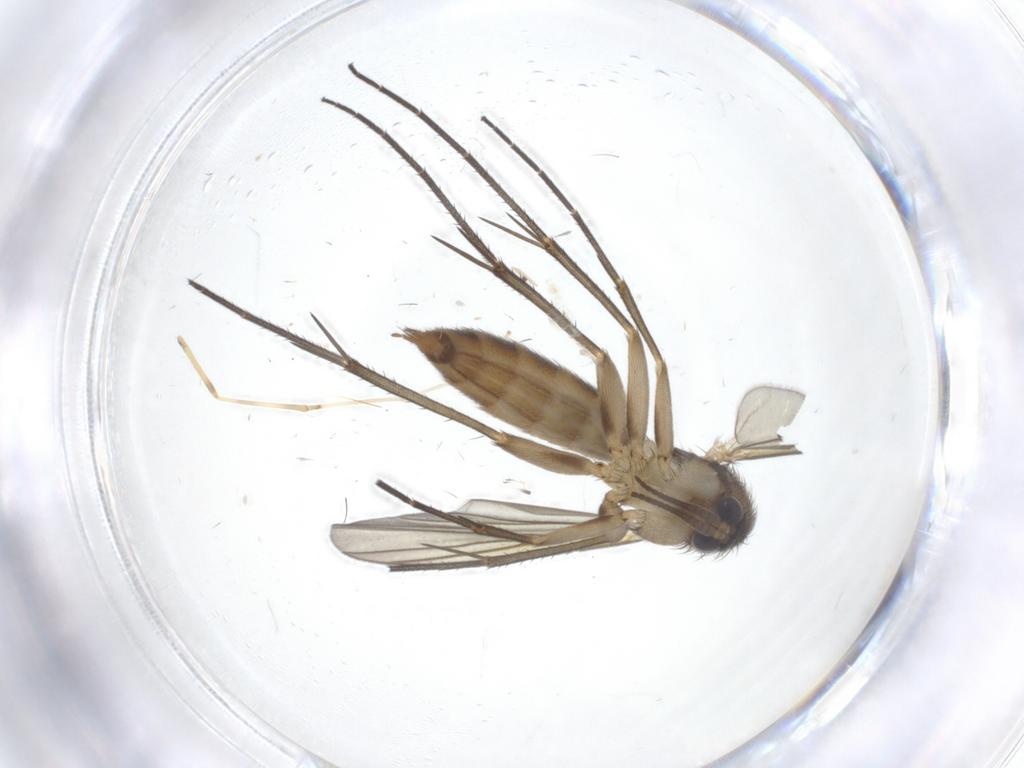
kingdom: Animalia
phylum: Arthropoda
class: Insecta
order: Diptera
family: Cecidomyiidae
